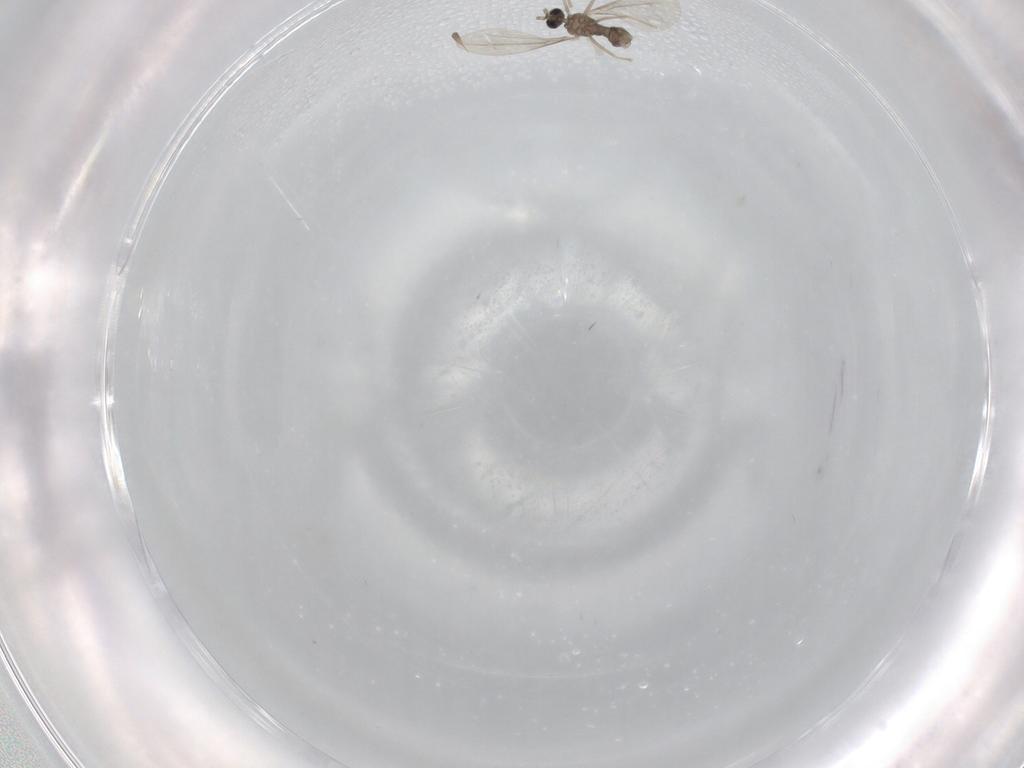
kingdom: Animalia
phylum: Arthropoda
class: Insecta
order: Diptera
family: Cecidomyiidae
